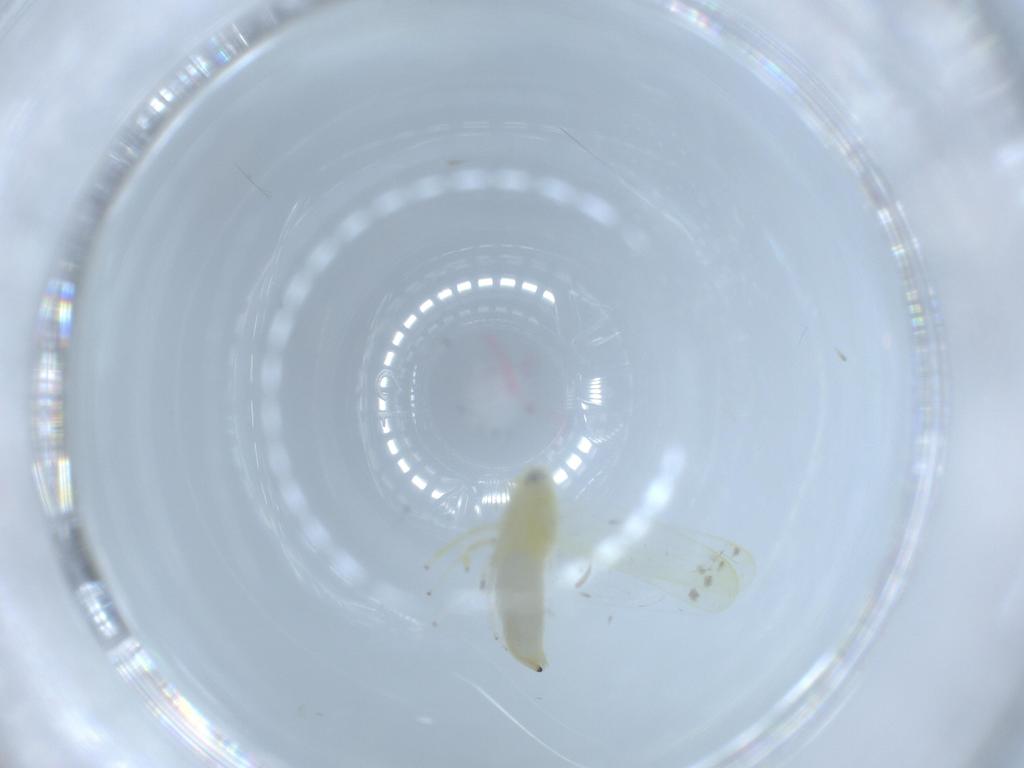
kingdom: Animalia
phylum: Arthropoda
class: Insecta
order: Hemiptera
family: Cicadellidae
